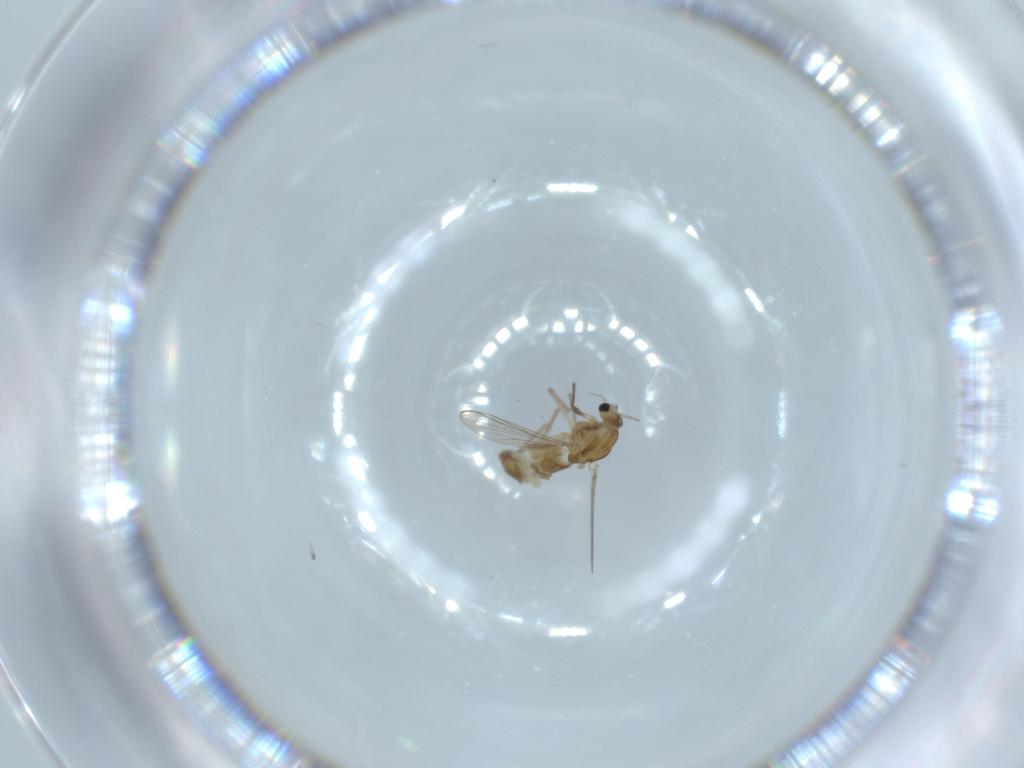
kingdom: Animalia
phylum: Arthropoda
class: Insecta
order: Diptera
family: Chironomidae
